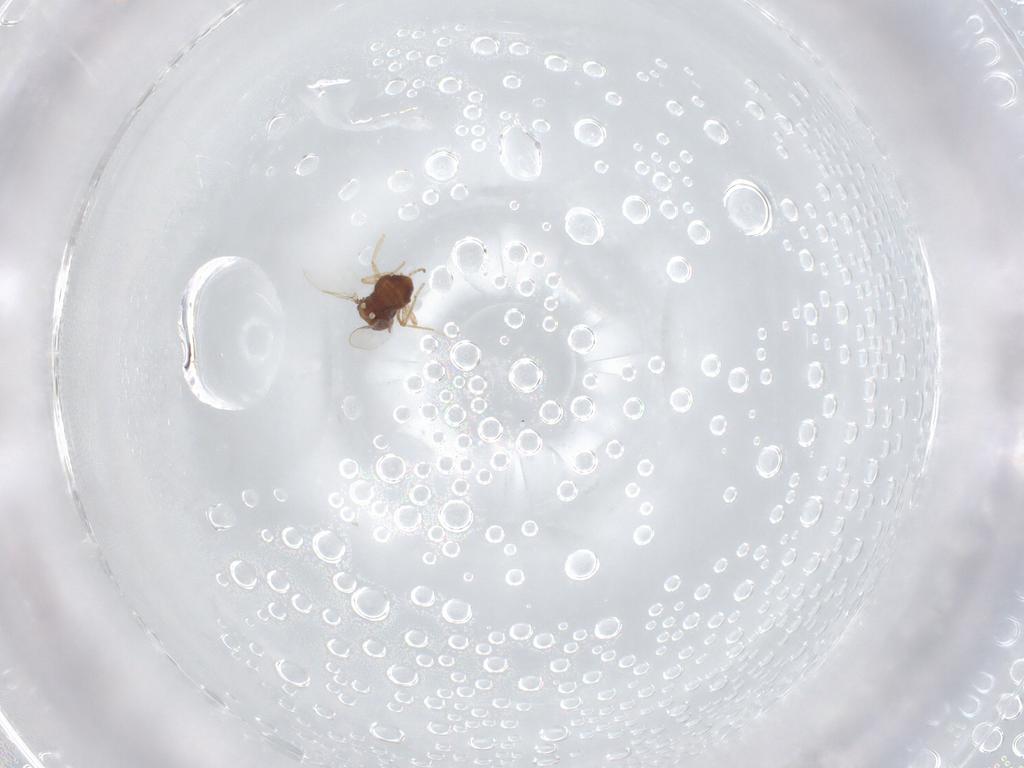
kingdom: Animalia
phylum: Arthropoda
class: Insecta
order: Diptera
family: Ceratopogonidae
